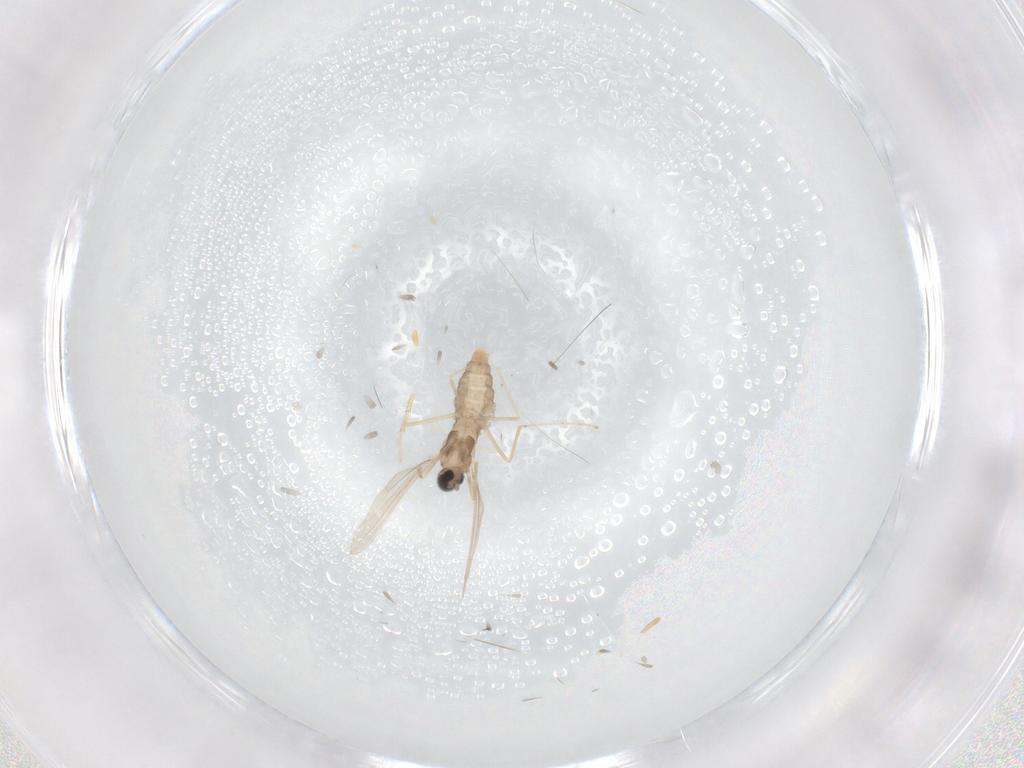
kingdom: Animalia
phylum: Arthropoda
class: Insecta
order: Diptera
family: Cecidomyiidae
